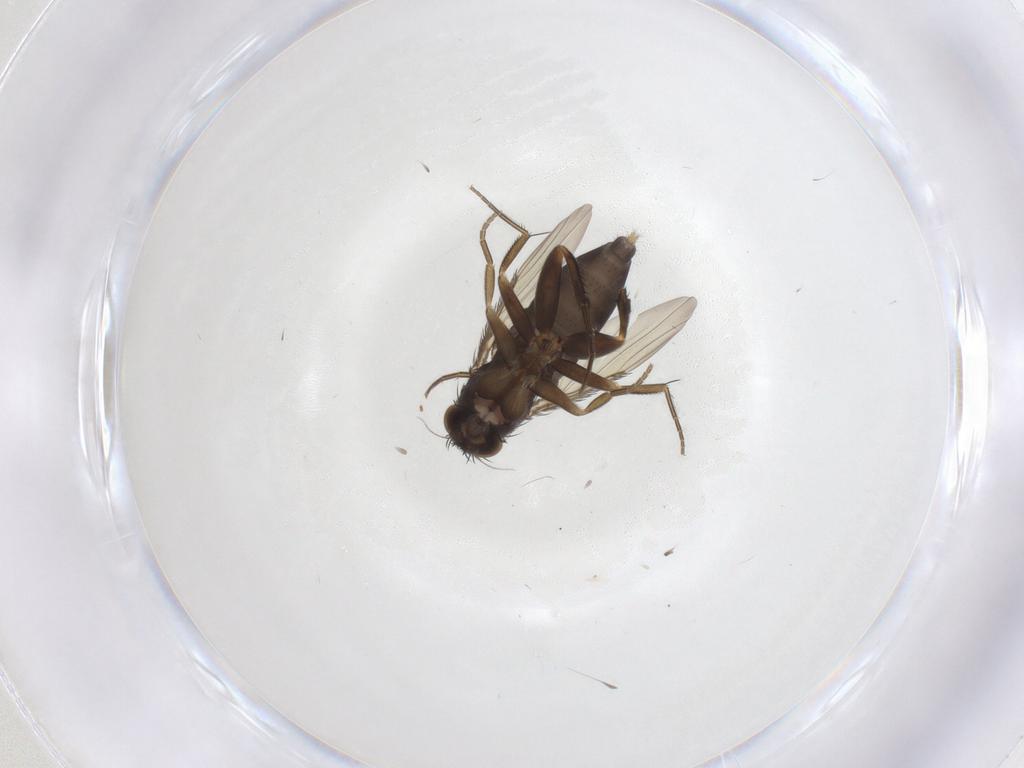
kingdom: Animalia
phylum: Arthropoda
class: Insecta
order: Diptera
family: Phoridae
